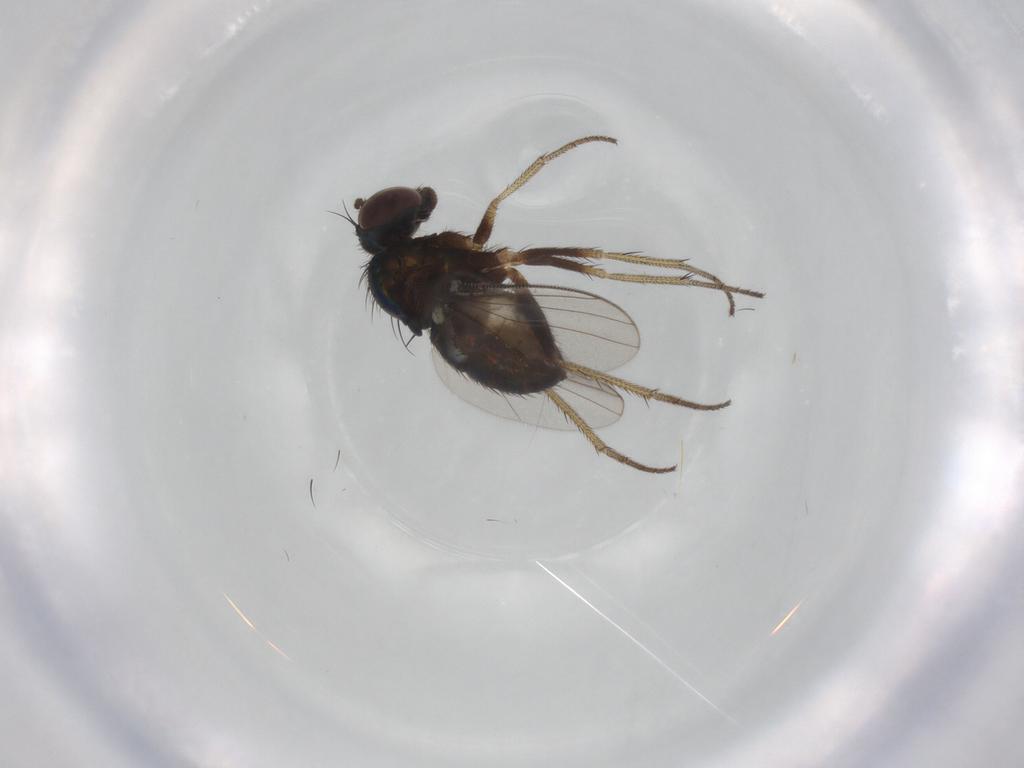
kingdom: Animalia
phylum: Arthropoda
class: Insecta
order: Diptera
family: Dolichopodidae
